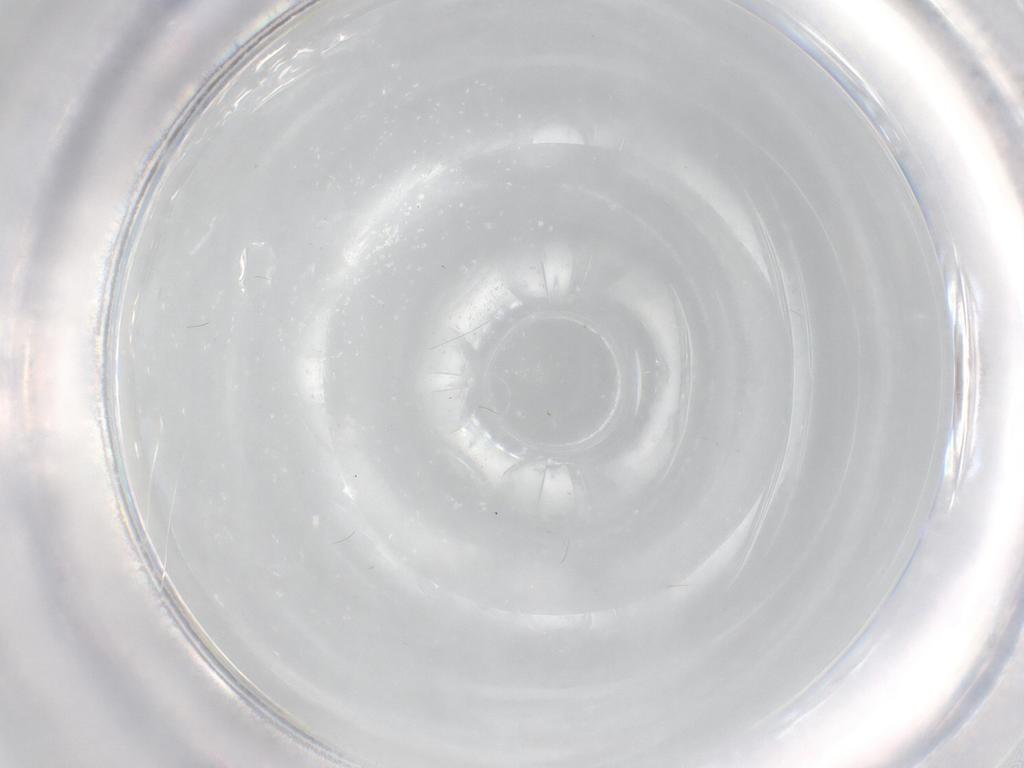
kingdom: Animalia
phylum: Arthropoda
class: Insecta
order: Diptera
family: Cecidomyiidae
